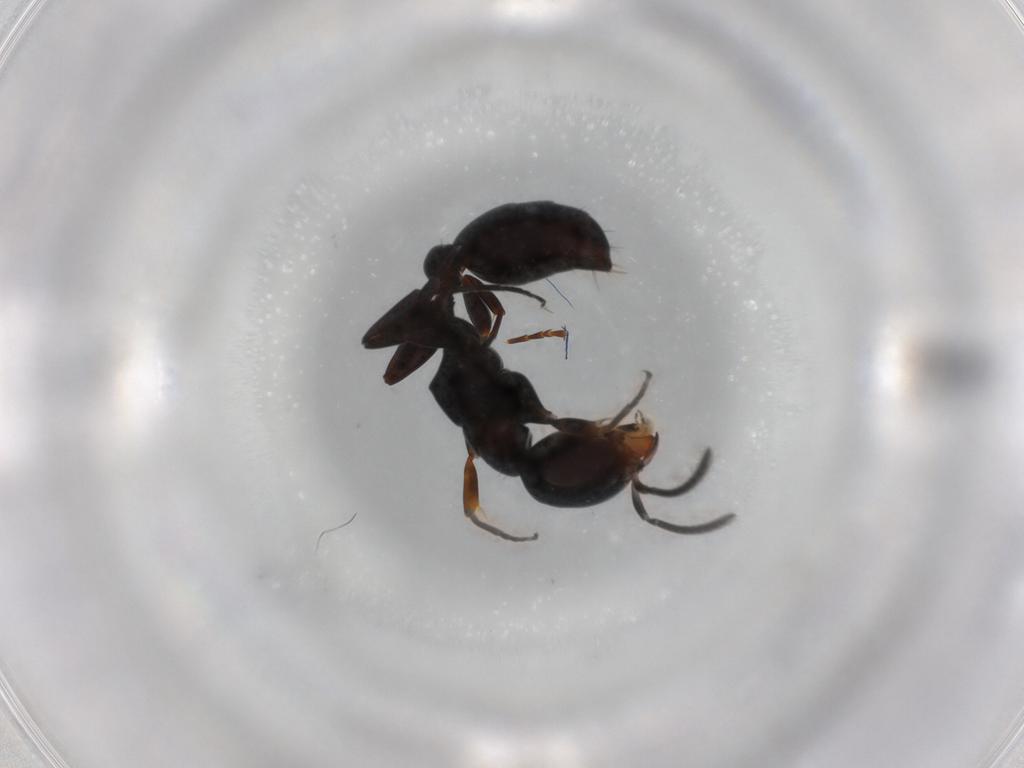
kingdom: Animalia
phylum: Arthropoda
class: Insecta
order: Hymenoptera
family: Formicidae
